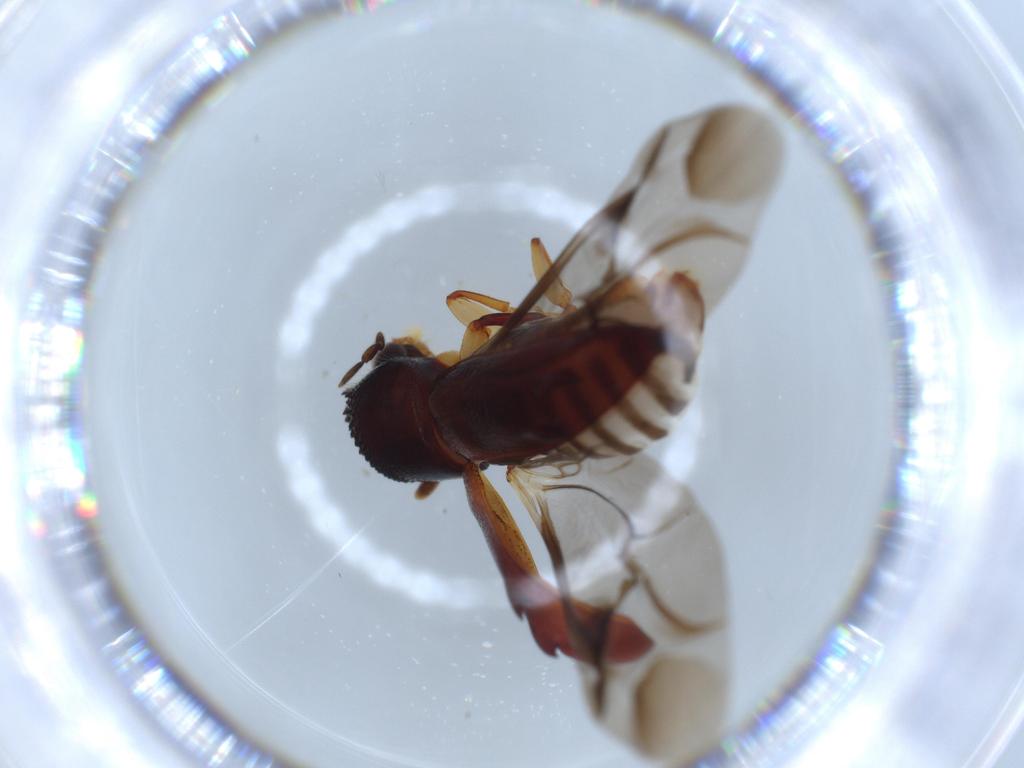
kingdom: Animalia
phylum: Arthropoda
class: Insecta
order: Coleoptera
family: Bostrichidae
